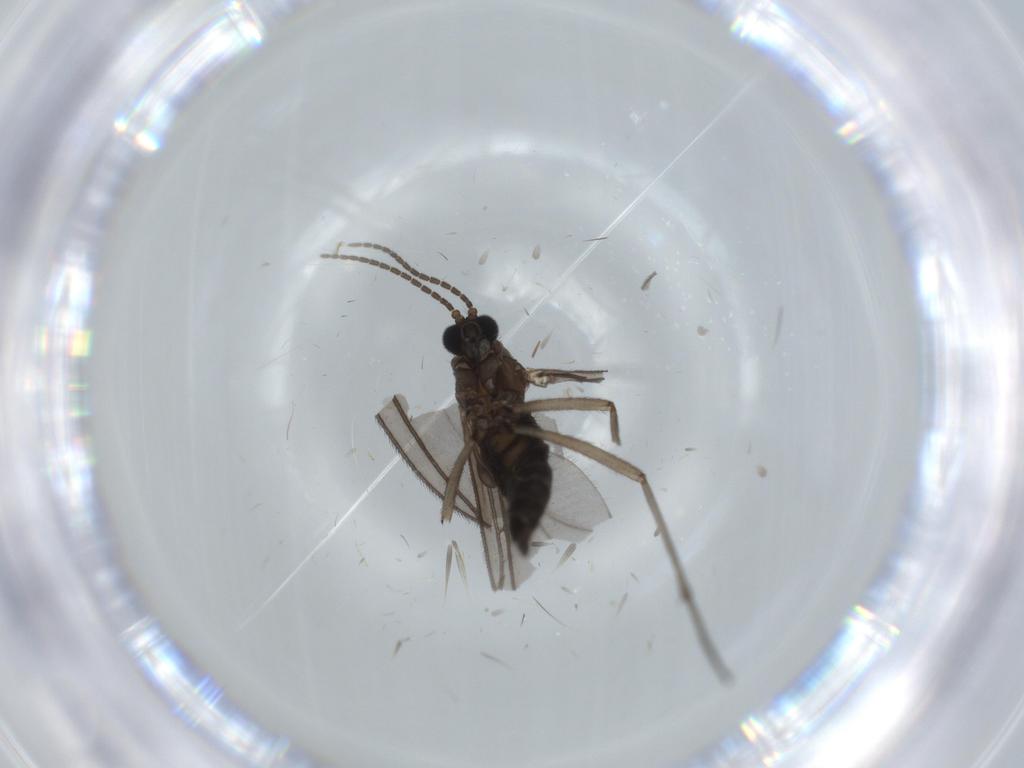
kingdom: Animalia
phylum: Arthropoda
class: Insecta
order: Diptera
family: Sciaridae
